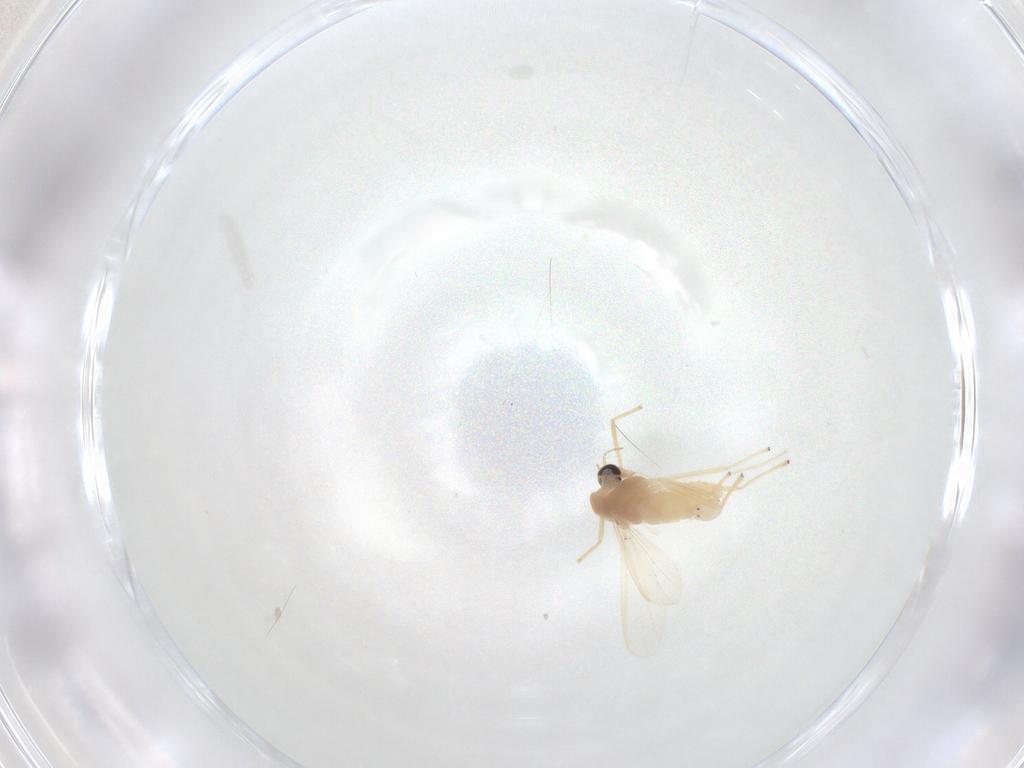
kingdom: Animalia
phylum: Arthropoda
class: Insecta
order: Diptera
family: Chironomidae
